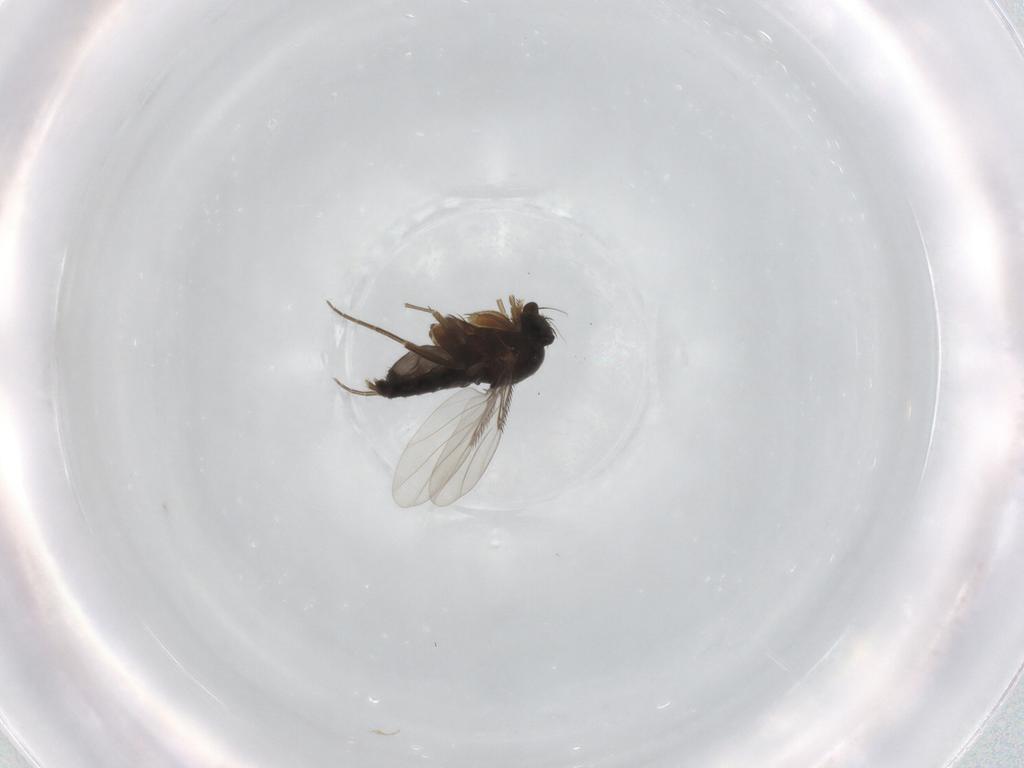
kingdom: Animalia
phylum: Arthropoda
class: Insecta
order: Diptera
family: Phoridae
